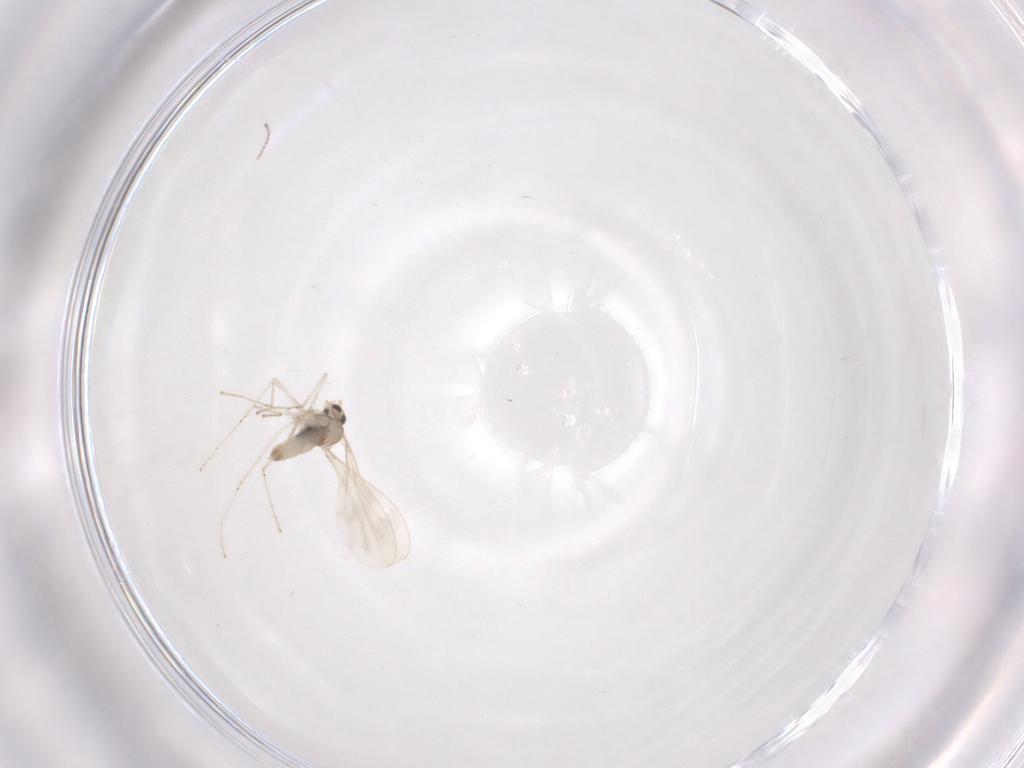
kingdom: Animalia
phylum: Arthropoda
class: Insecta
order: Diptera
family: Cecidomyiidae
